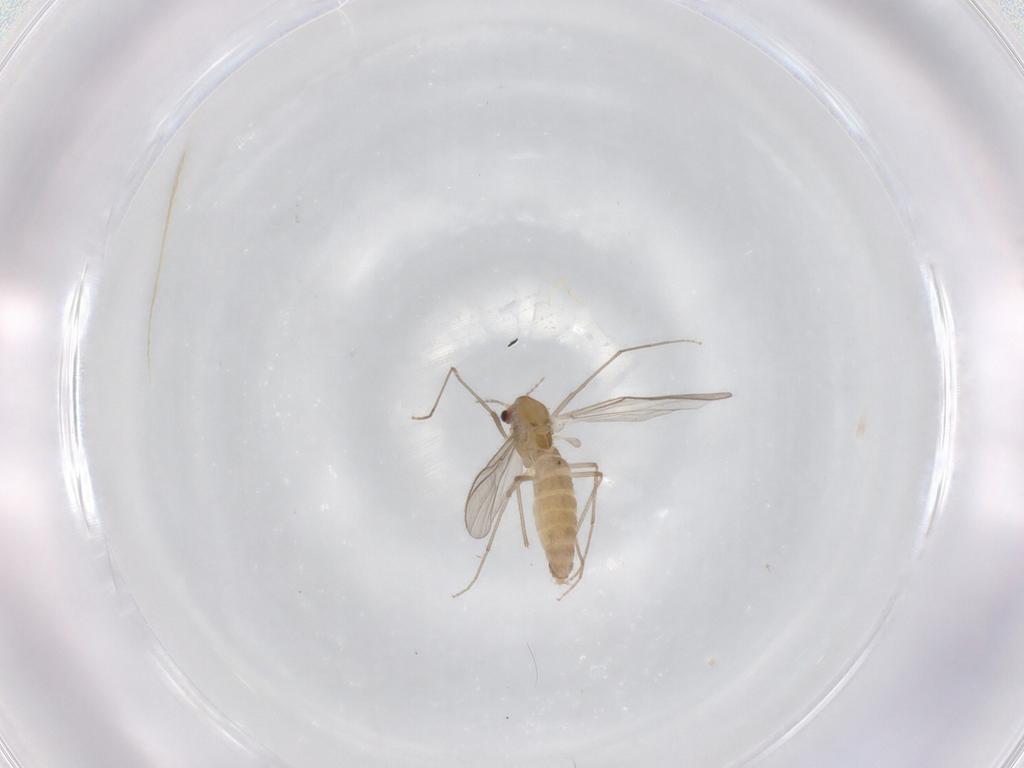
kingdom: Animalia
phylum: Arthropoda
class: Insecta
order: Diptera
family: Chironomidae
